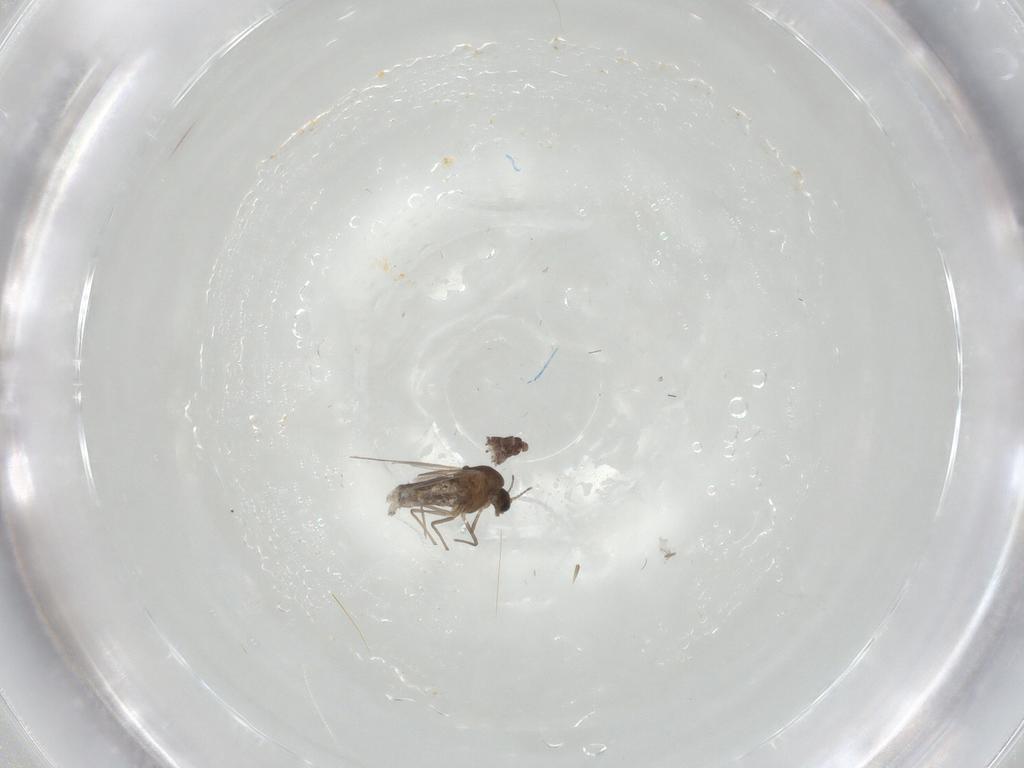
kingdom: Animalia
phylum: Arthropoda
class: Insecta
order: Diptera
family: Chironomidae
